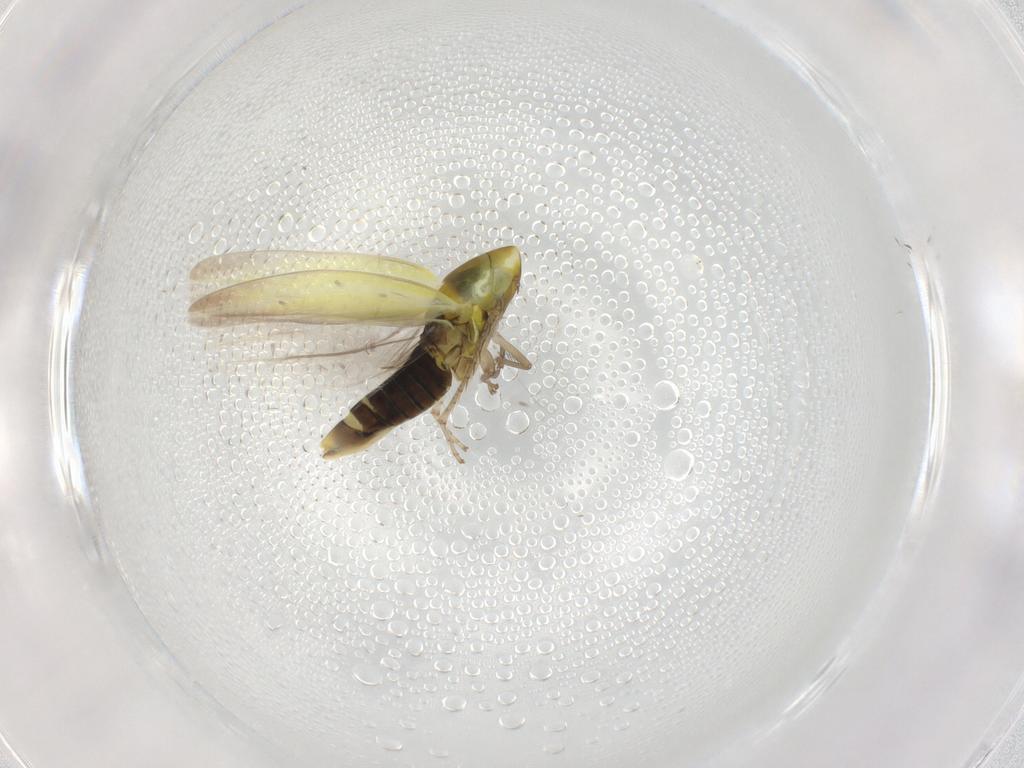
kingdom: Animalia
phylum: Arthropoda
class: Insecta
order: Hemiptera
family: Cicadellidae
